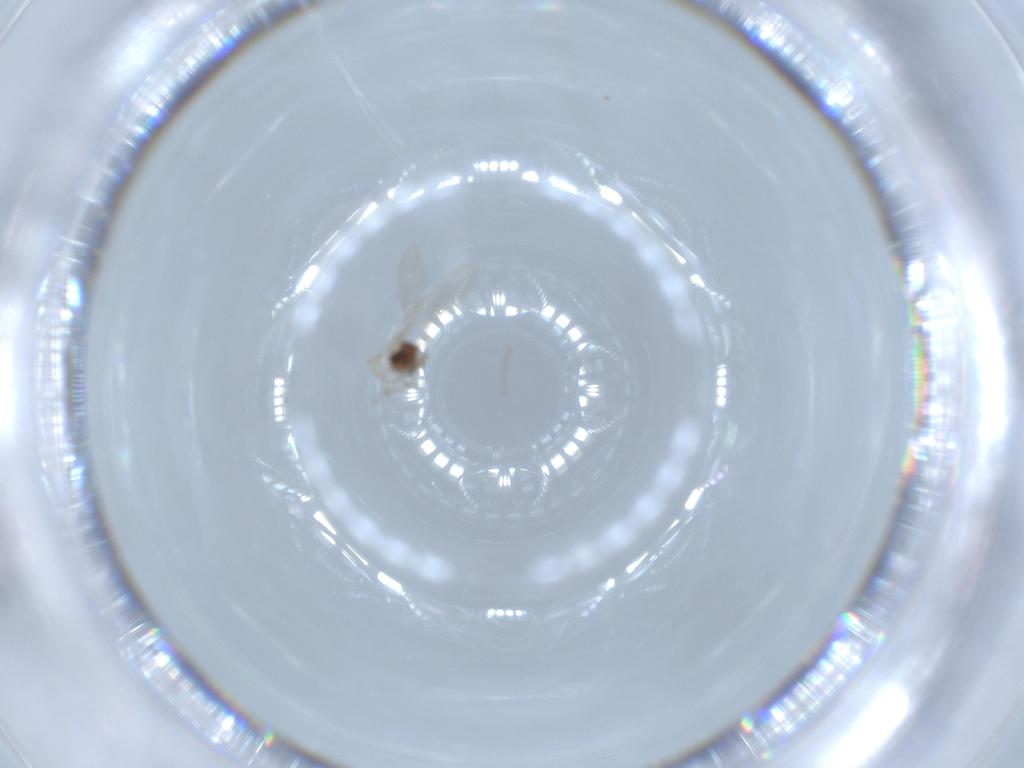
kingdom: Animalia
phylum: Arthropoda
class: Insecta
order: Diptera
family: Cecidomyiidae
